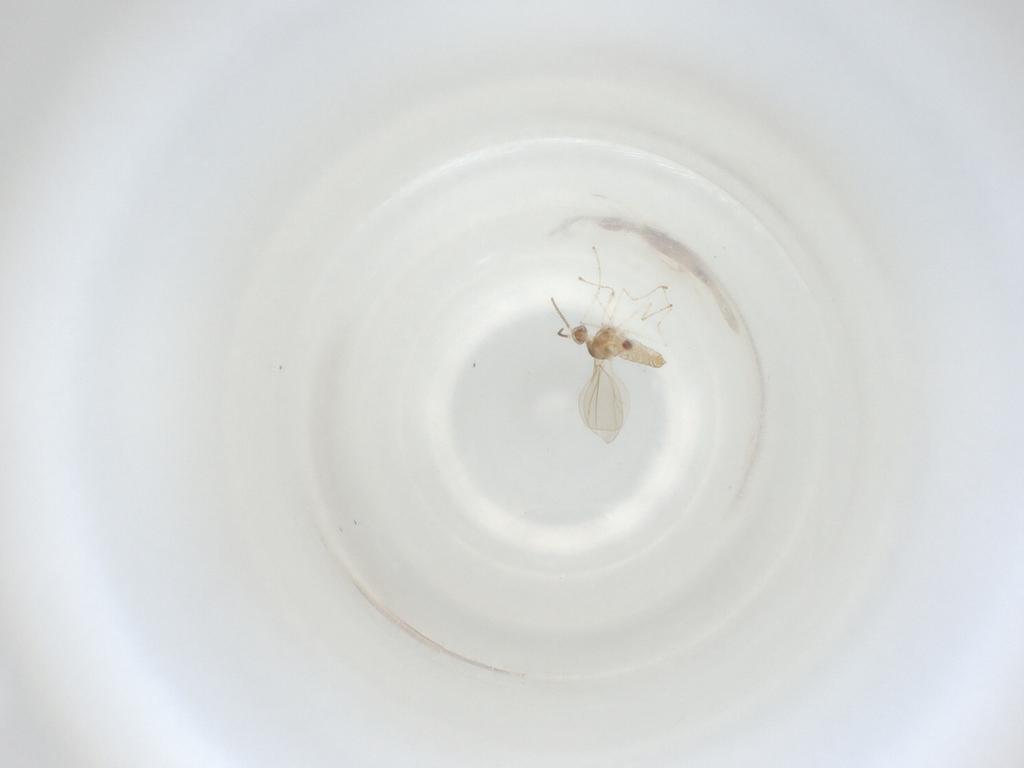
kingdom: Animalia
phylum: Arthropoda
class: Insecta
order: Diptera
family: Cecidomyiidae
